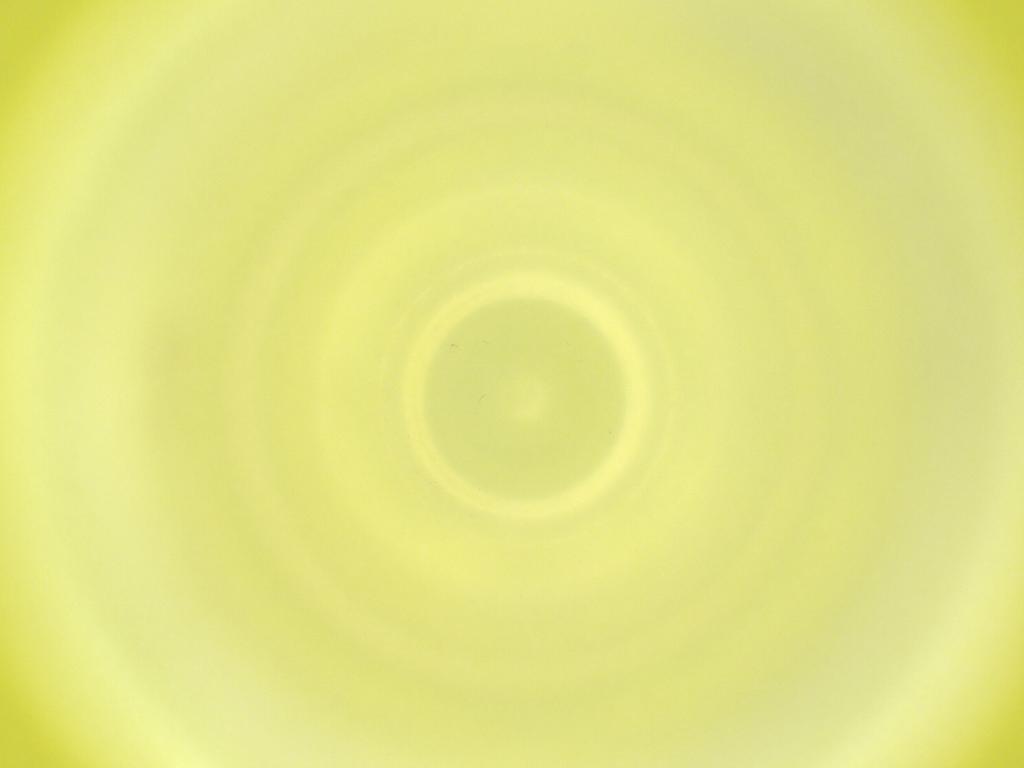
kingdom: Animalia
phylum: Arthropoda
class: Insecta
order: Diptera
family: Cecidomyiidae
